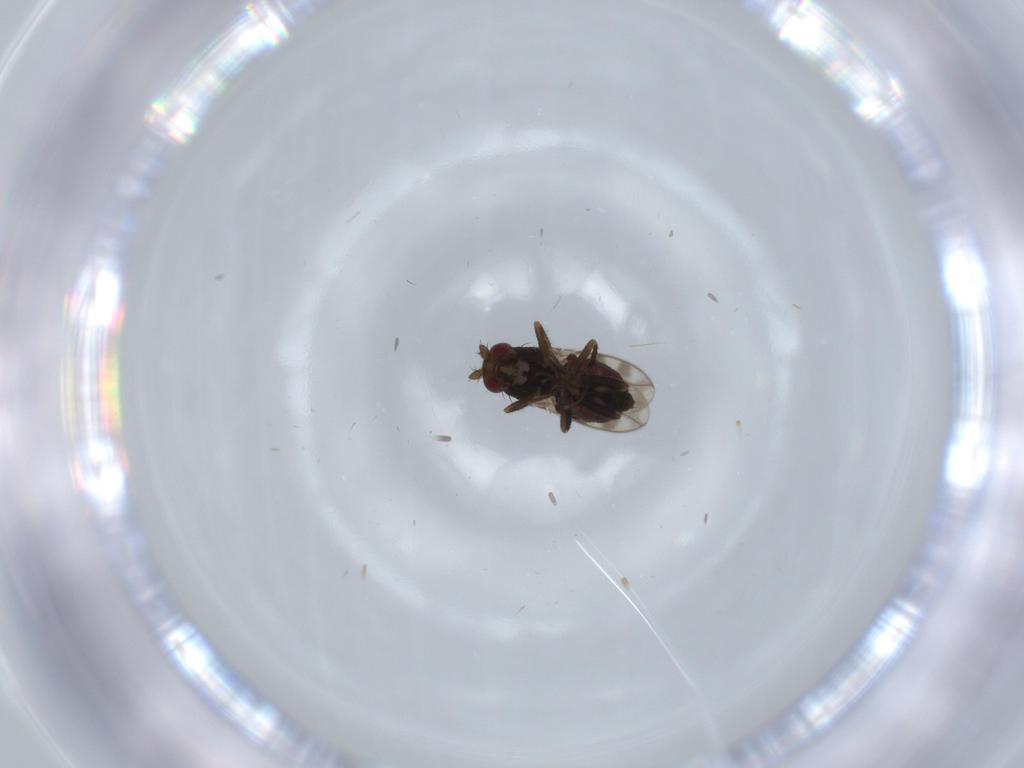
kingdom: Animalia
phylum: Arthropoda
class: Insecta
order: Diptera
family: Sphaeroceridae
